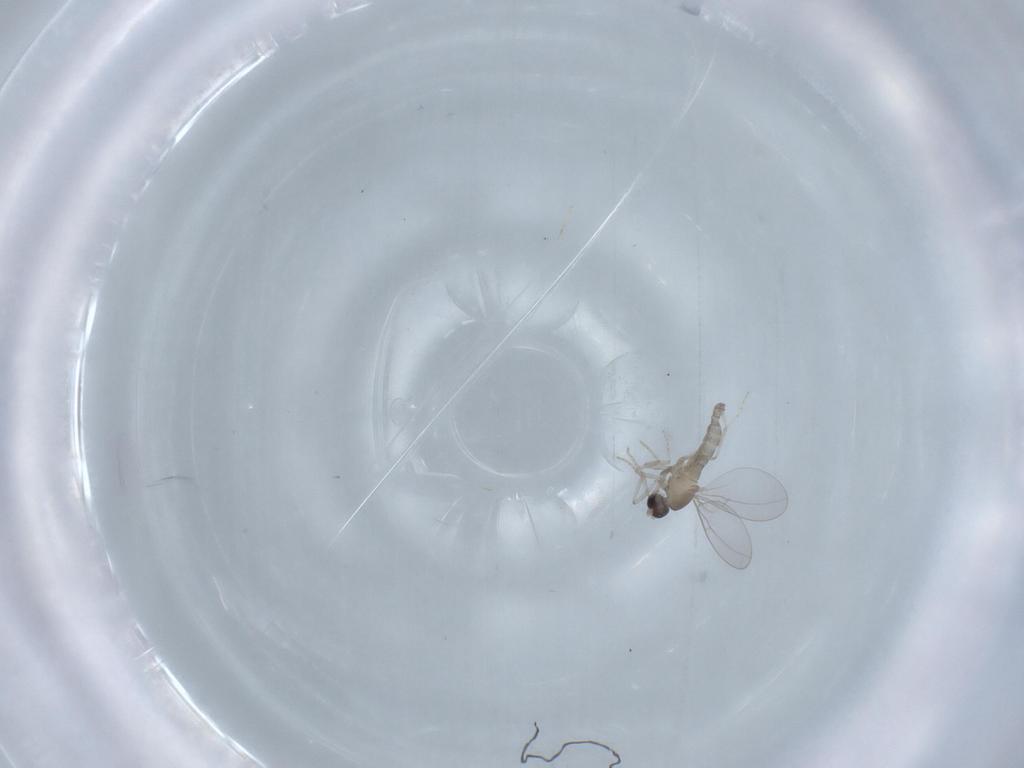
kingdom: Animalia
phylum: Arthropoda
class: Insecta
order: Diptera
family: Cecidomyiidae
